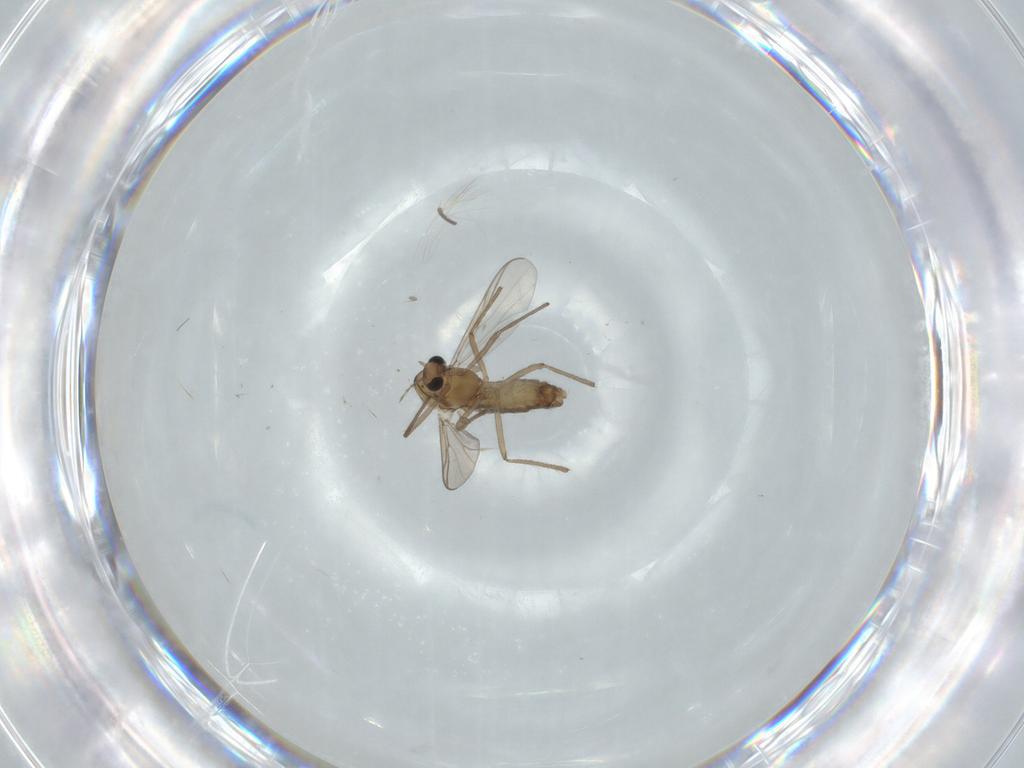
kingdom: Animalia
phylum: Arthropoda
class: Insecta
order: Diptera
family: Chironomidae
